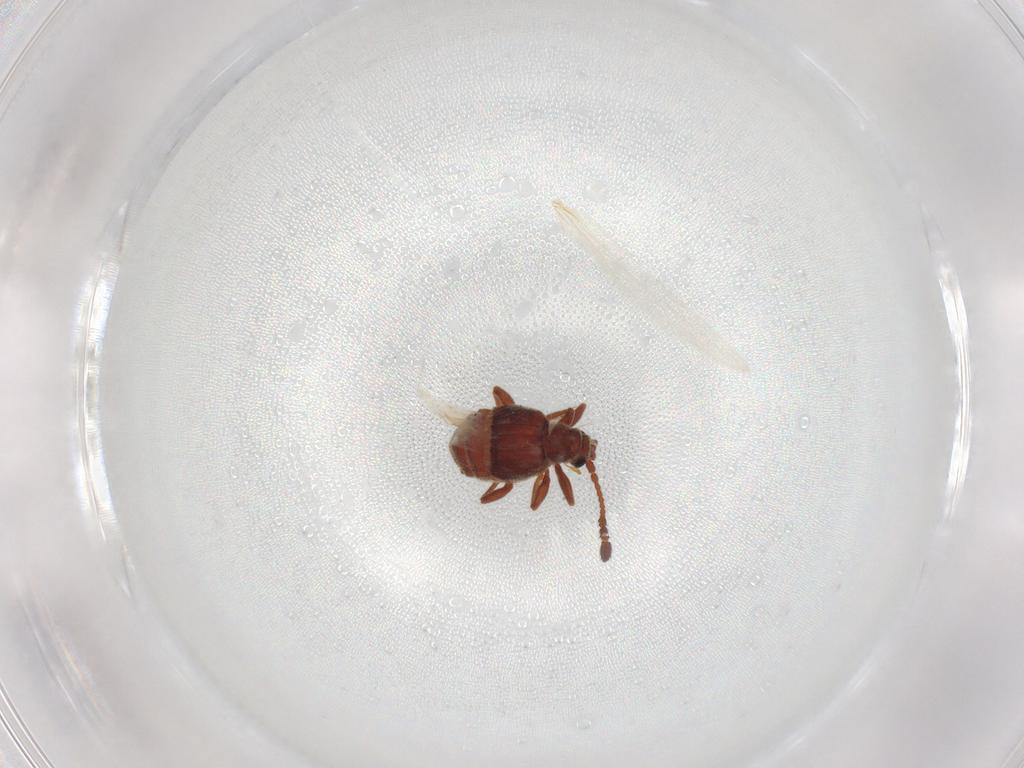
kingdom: Animalia
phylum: Arthropoda
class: Insecta
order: Coleoptera
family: Staphylinidae
